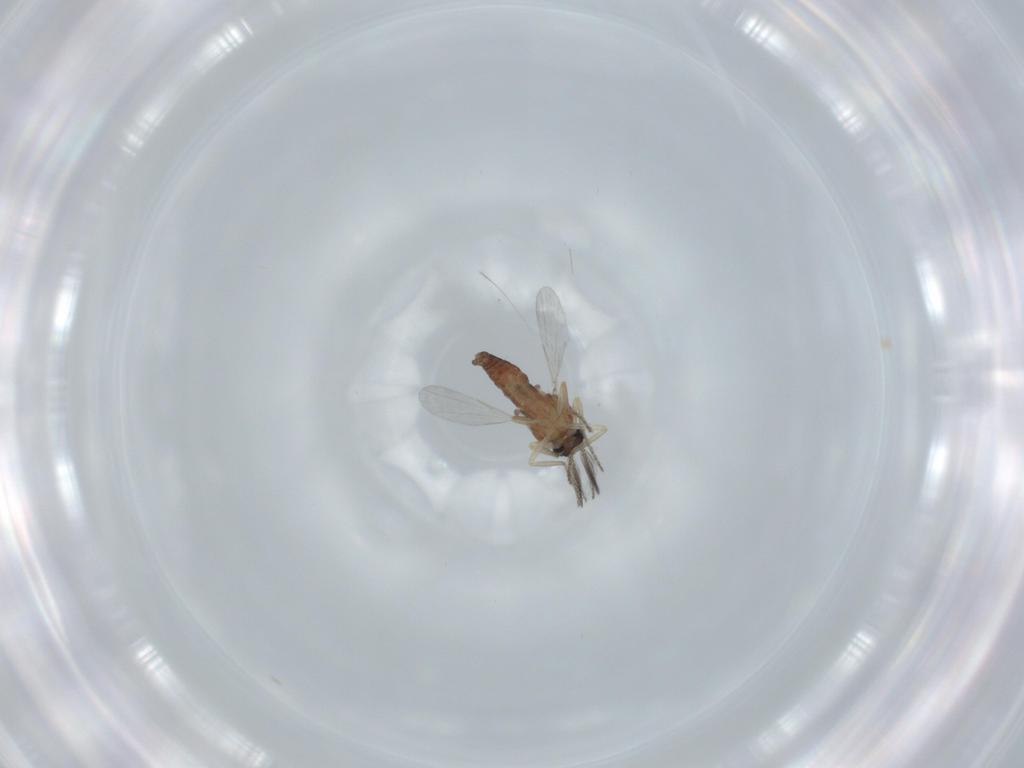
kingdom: Animalia
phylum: Arthropoda
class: Insecta
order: Diptera
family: Ceratopogonidae
